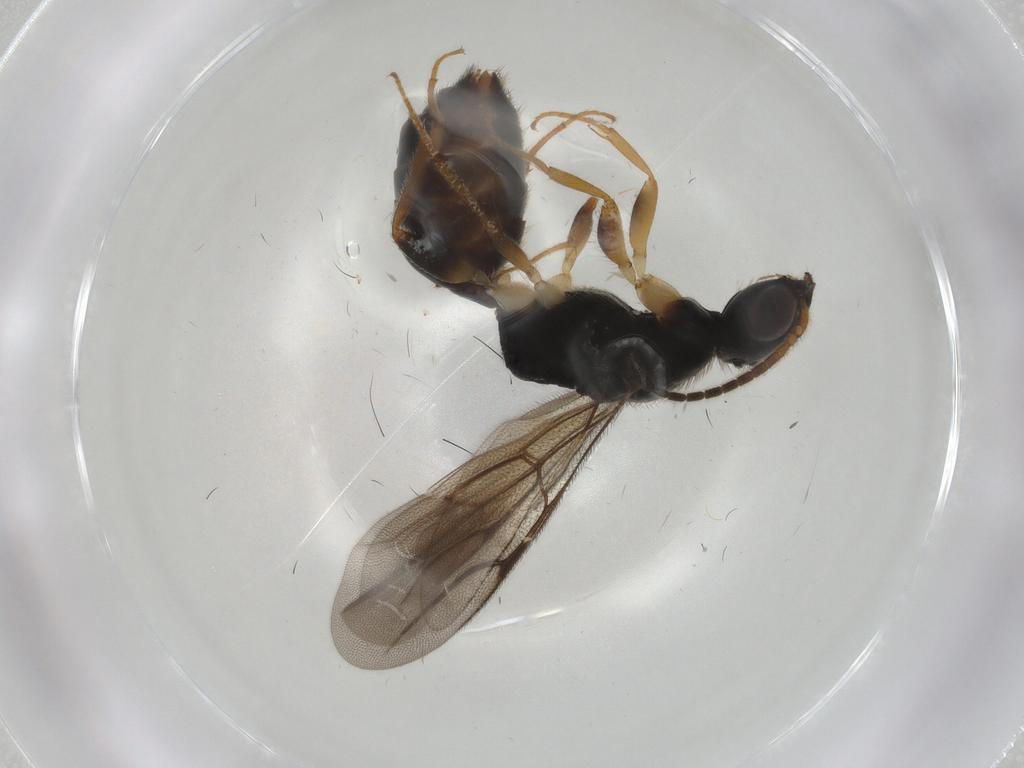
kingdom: Animalia
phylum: Arthropoda
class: Insecta
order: Hymenoptera
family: Bethylidae
